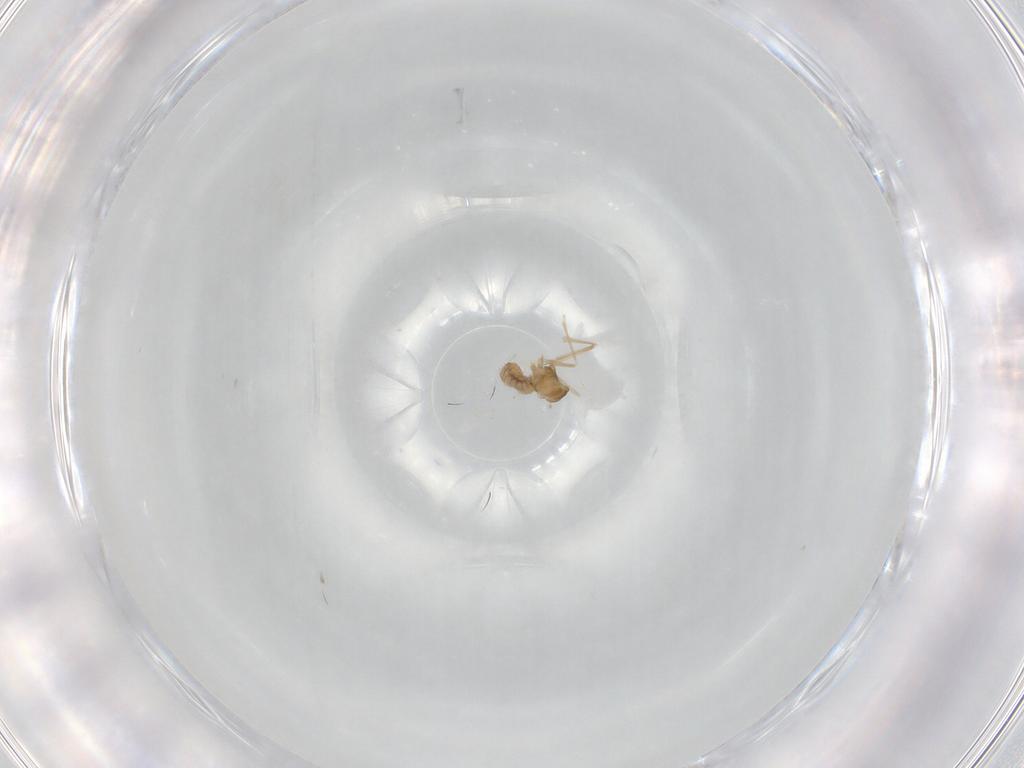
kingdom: Animalia
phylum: Arthropoda
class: Insecta
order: Diptera
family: Cecidomyiidae
